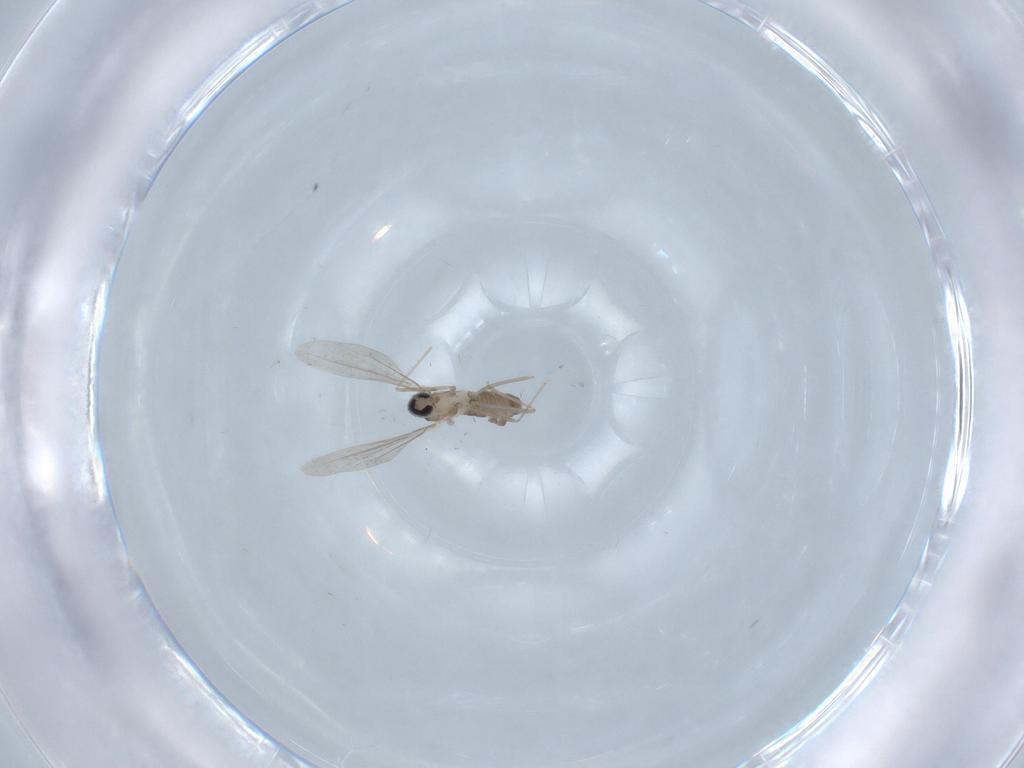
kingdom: Animalia
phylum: Arthropoda
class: Insecta
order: Diptera
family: Cecidomyiidae
